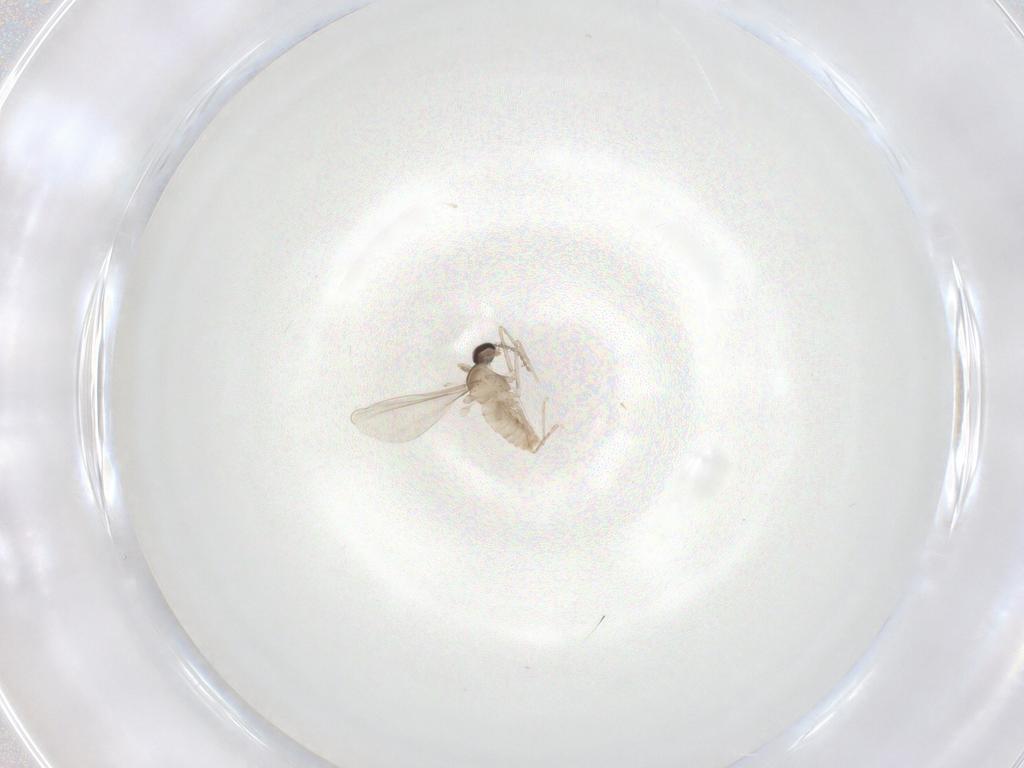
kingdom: Animalia
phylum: Arthropoda
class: Insecta
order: Diptera
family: Cecidomyiidae
